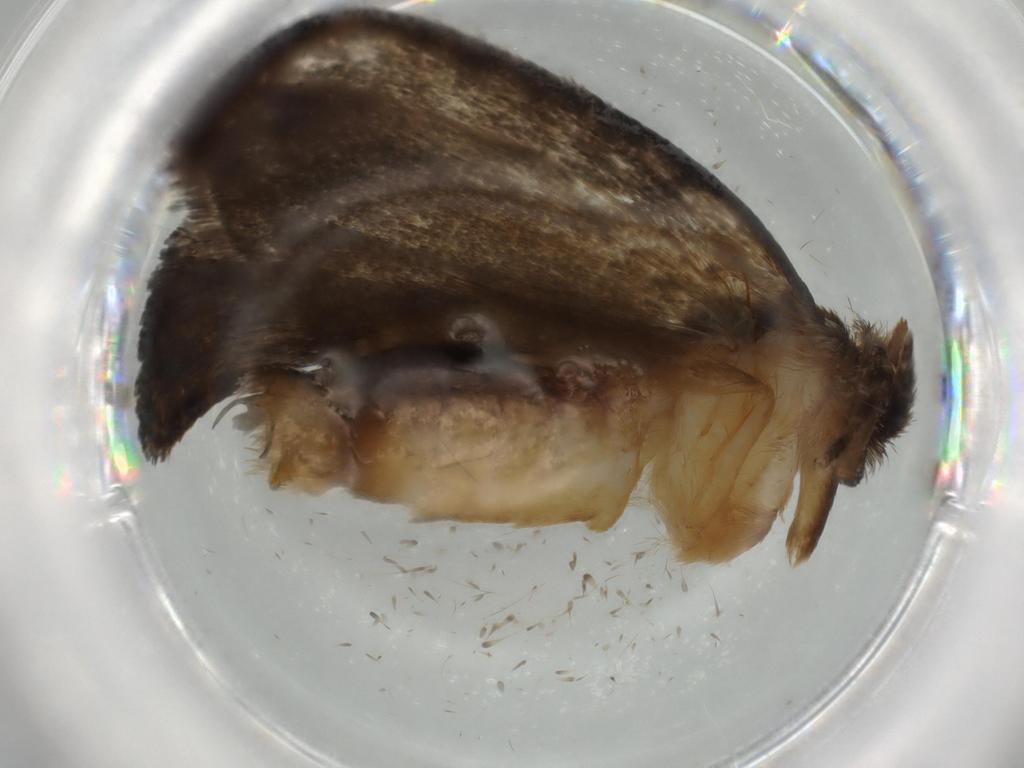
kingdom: Animalia
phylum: Arthropoda
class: Insecta
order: Lepidoptera
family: Tineidae
